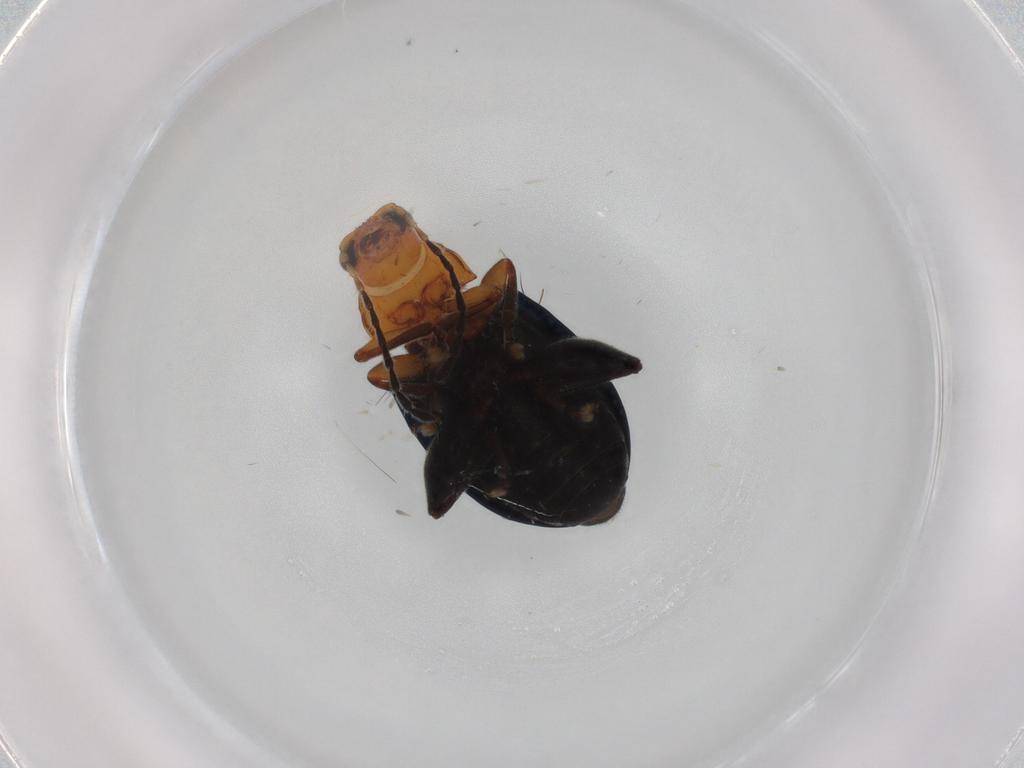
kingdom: Animalia
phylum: Arthropoda
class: Insecta
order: Coleoptera
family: Chrysomelidae
